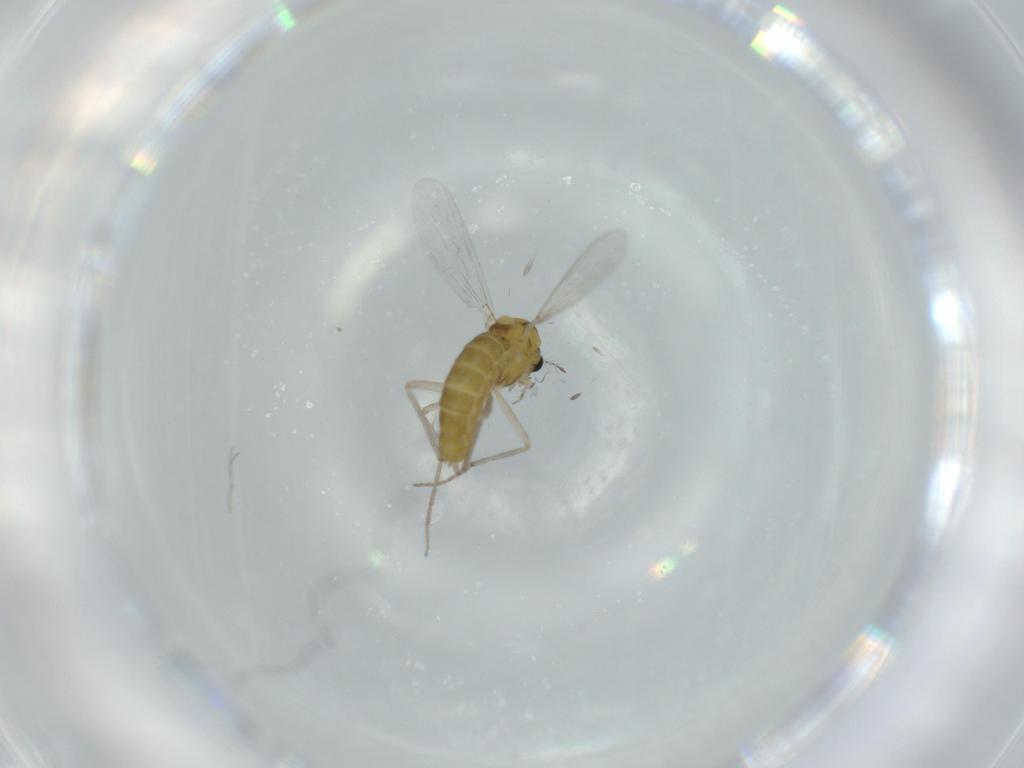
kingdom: Animalia
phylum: Arthropoda
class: Insecta
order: Diptera
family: Chironomidae
